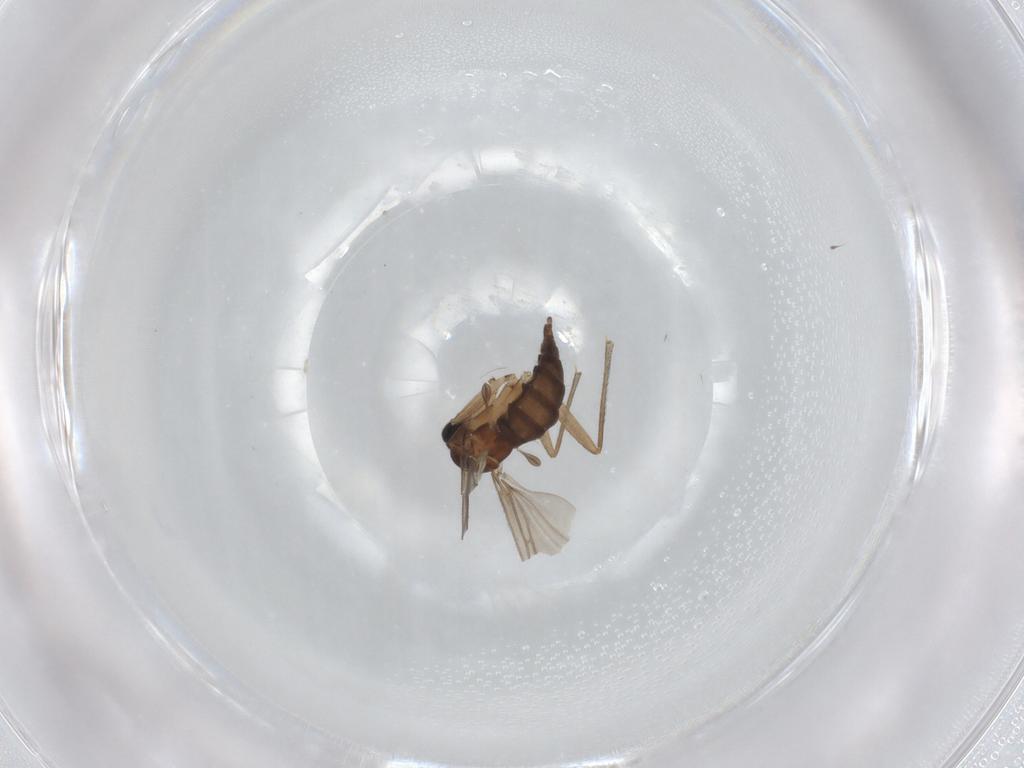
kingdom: Animalia
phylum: Arthropoda
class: Insecta
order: Diptera
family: Sciaridae
